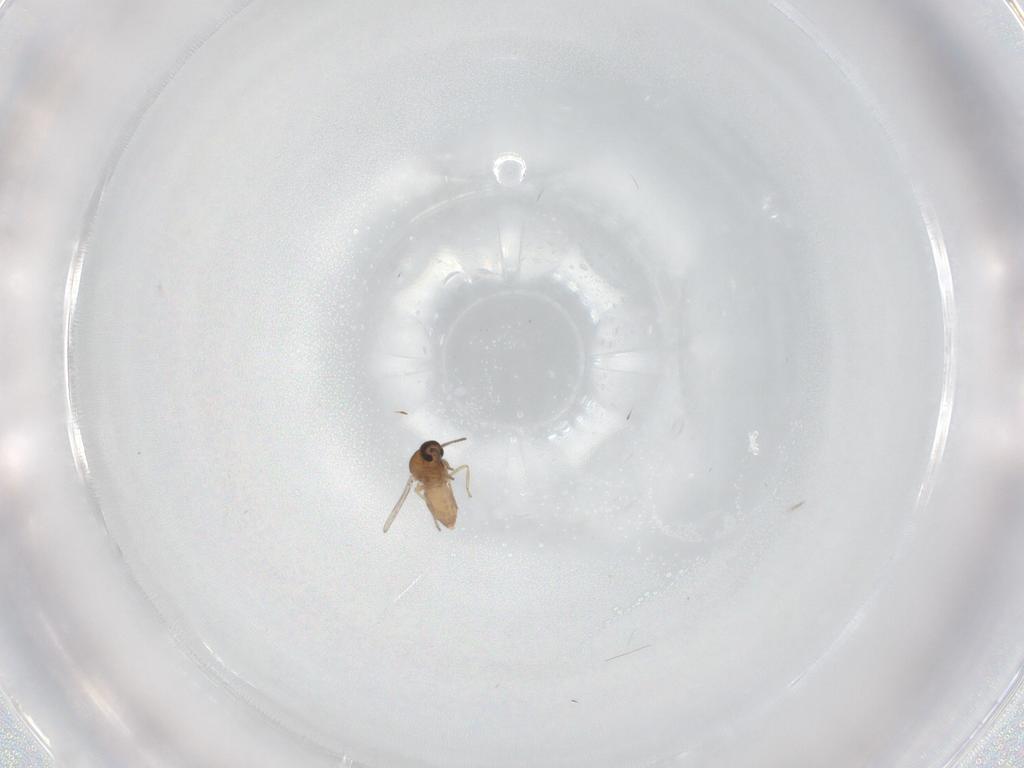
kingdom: Animalia
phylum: Arthropoda
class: Insecta
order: Diptera
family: Ceratopogonidae
